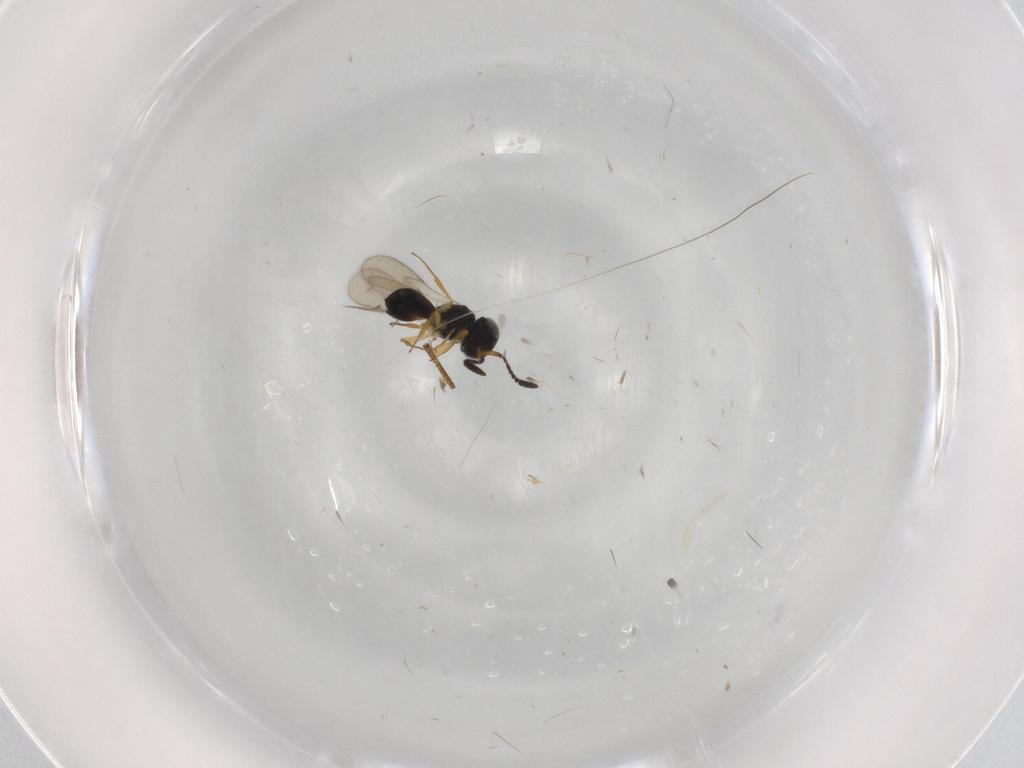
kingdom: Animalia
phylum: Arthropoda
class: Insecta
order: Hymenoptera
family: Scelionidae
